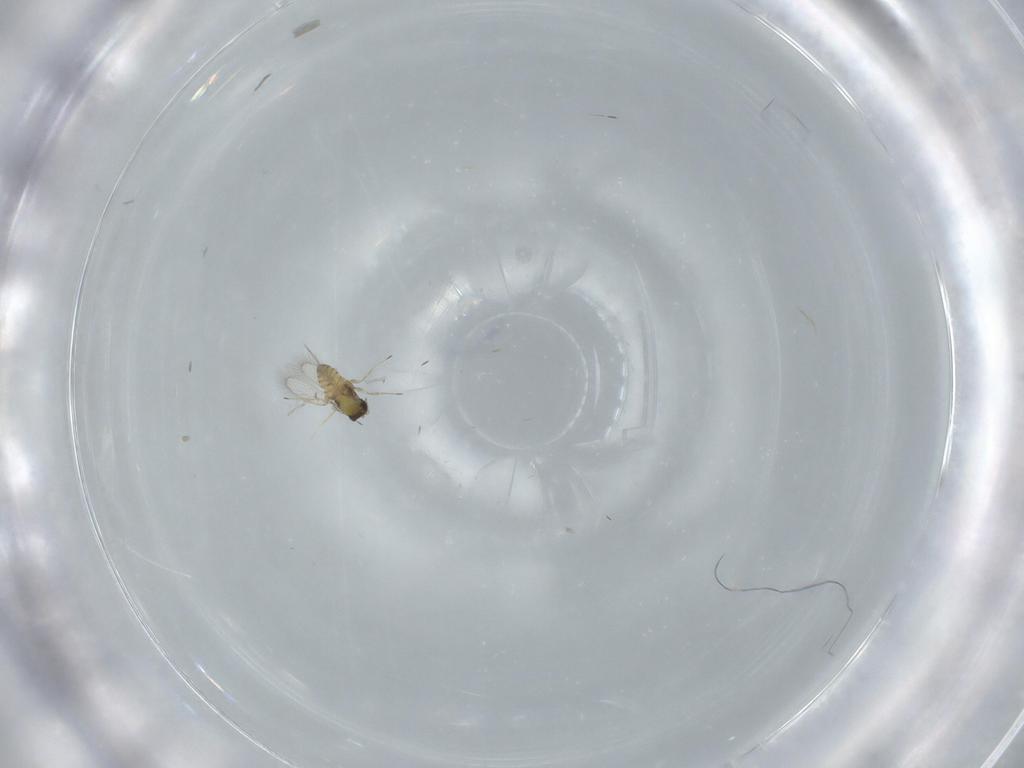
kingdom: Animalia
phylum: Arthropoda
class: Insecta
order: Hymenoptera
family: Trichogrammatidae
